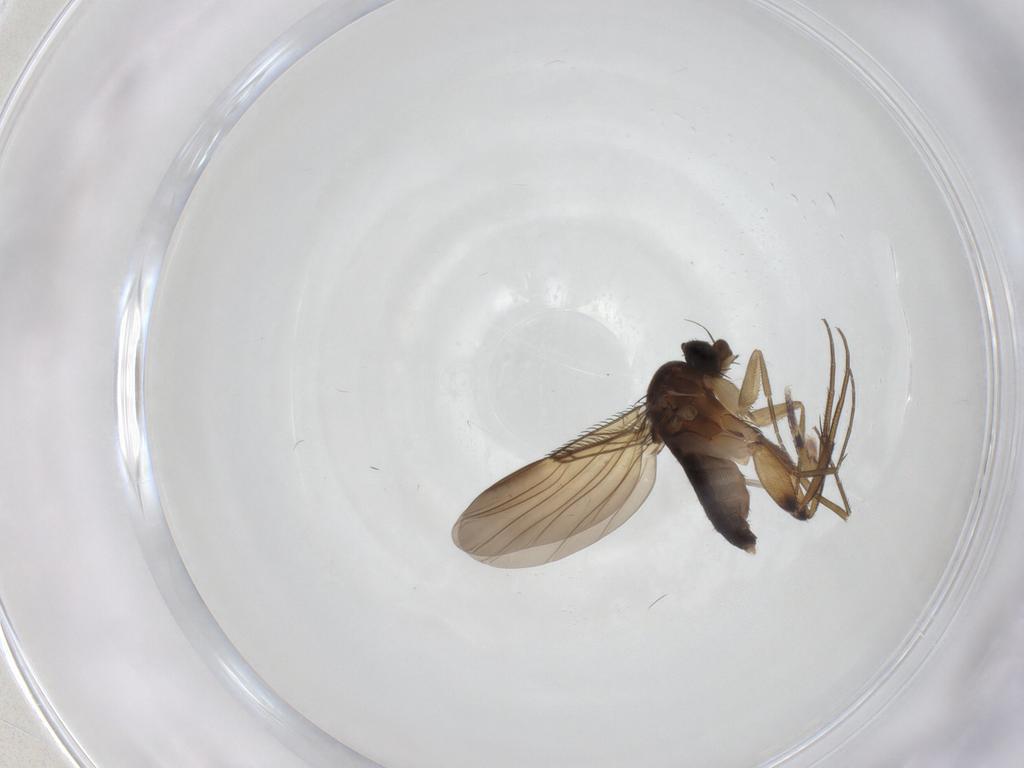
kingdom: Animalia
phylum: Arthropoda
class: Insecta
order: Diptera
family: Chironomidae
